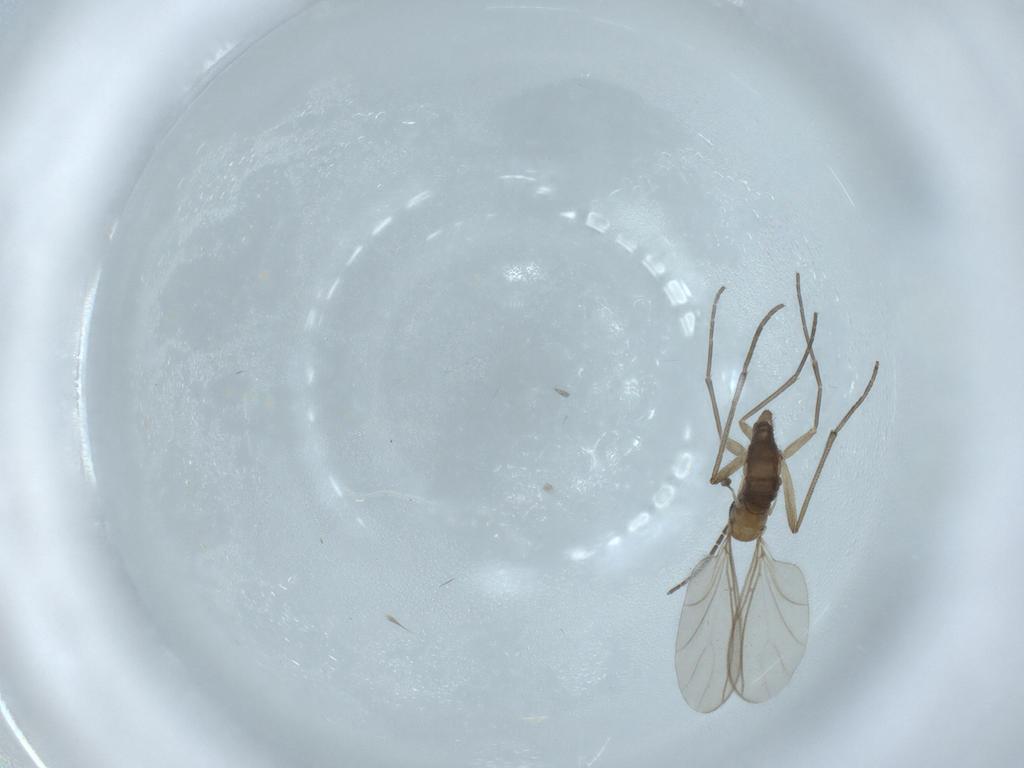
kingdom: Animalia
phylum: Arthropoda
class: Insecta
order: Diptera
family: Sciaridae
